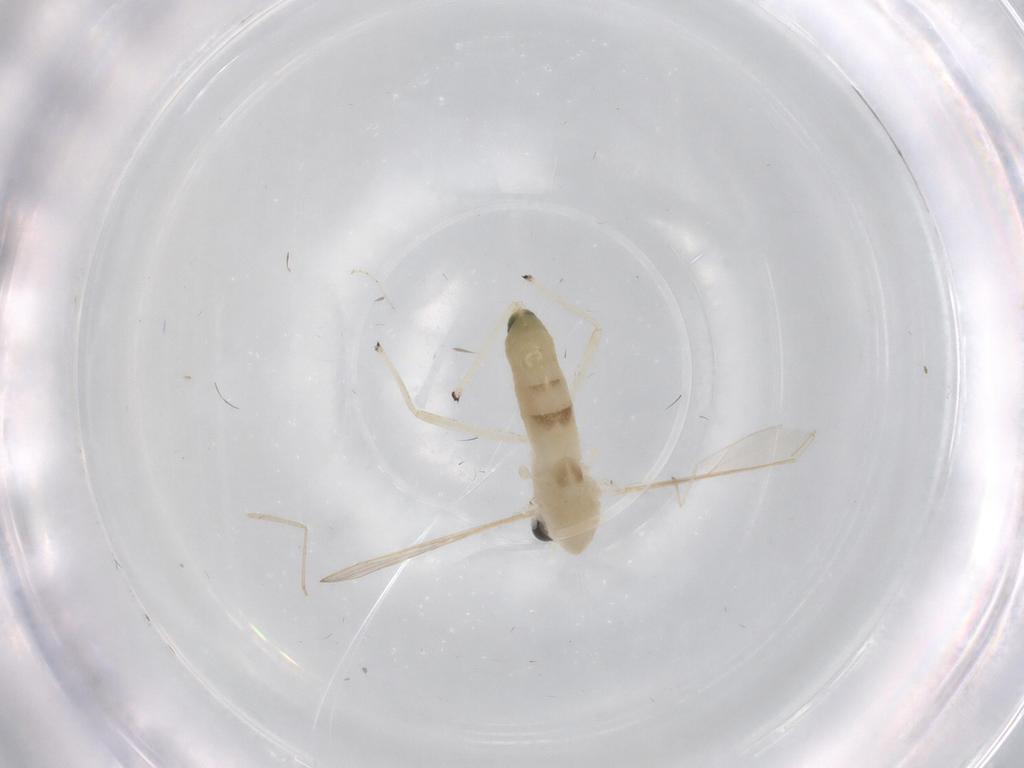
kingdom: Animalia
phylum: Arthropoda
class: Insecta
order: Diptera
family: Chironomidae
